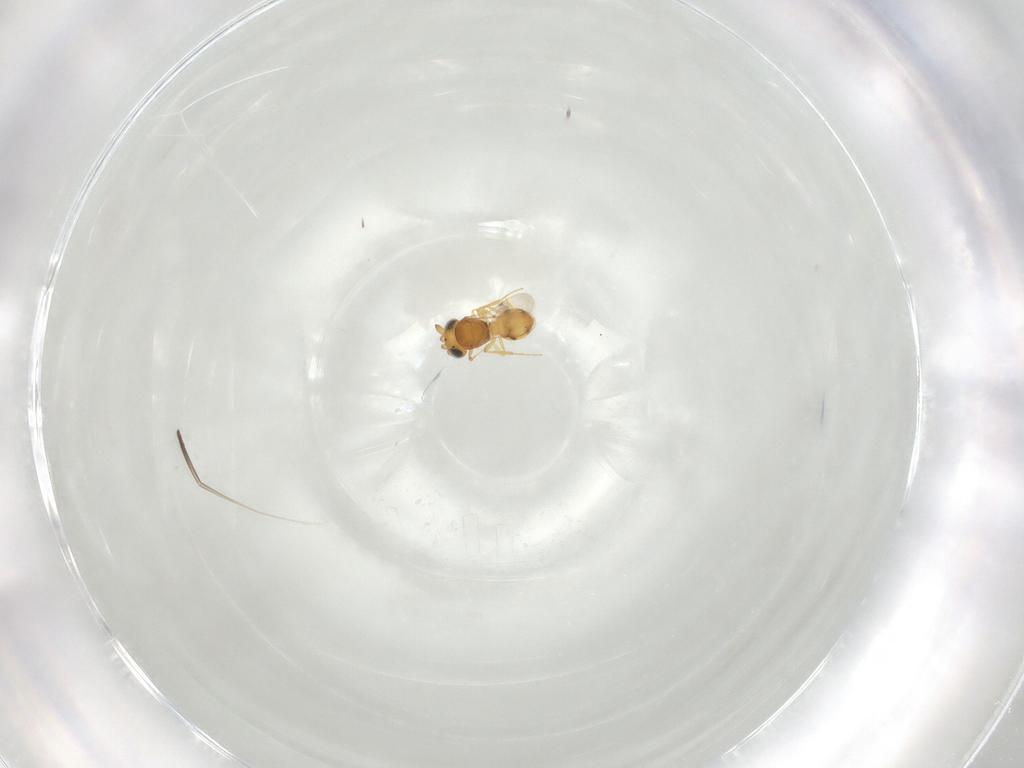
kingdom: Animalia
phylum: Arthropoda
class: Insecta
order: Hymenoptera
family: Scelionidae
